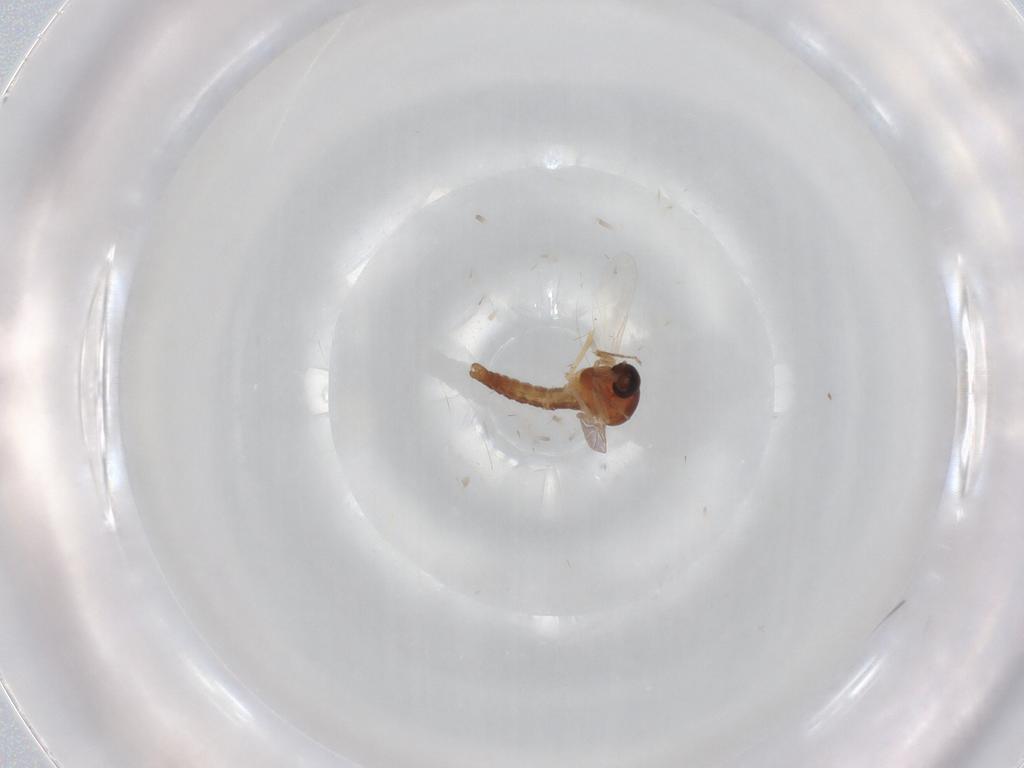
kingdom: Animalia
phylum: Arthropoda
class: Insecta
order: Diptera
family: Ceratopogonidae
